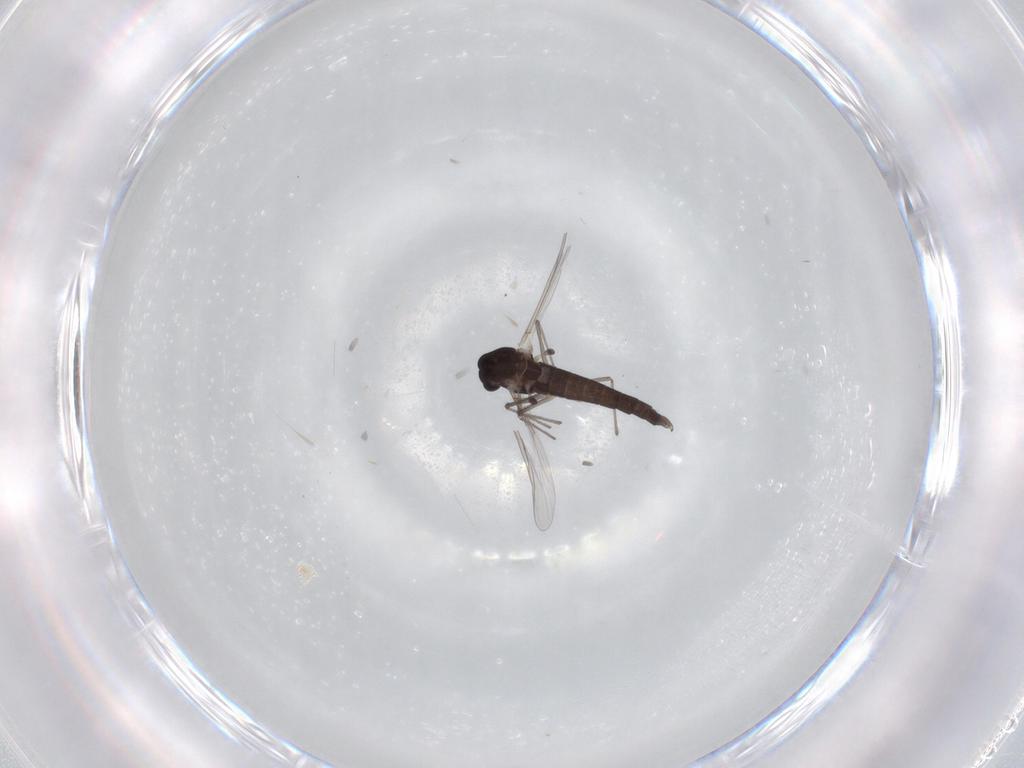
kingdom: Animalia
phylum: Arthropoda
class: Insecta
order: Diptera
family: Chironomidae
